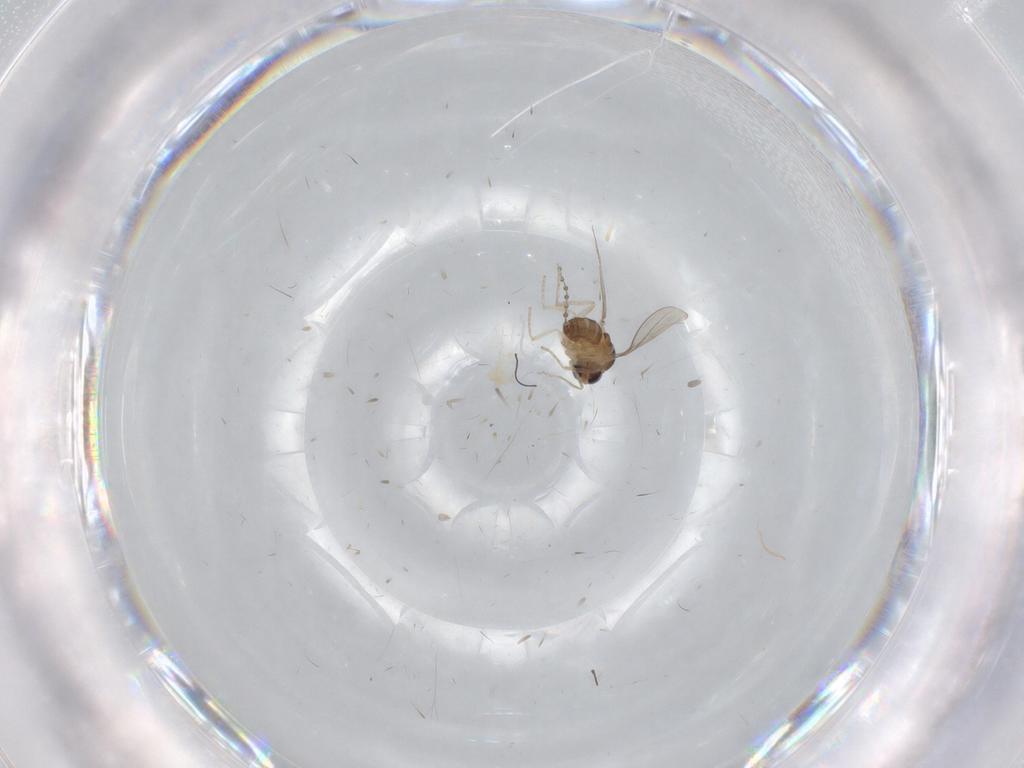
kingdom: Animalia
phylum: Arthropoda
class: Insecta
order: Diptera
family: Cecidomyiidae
